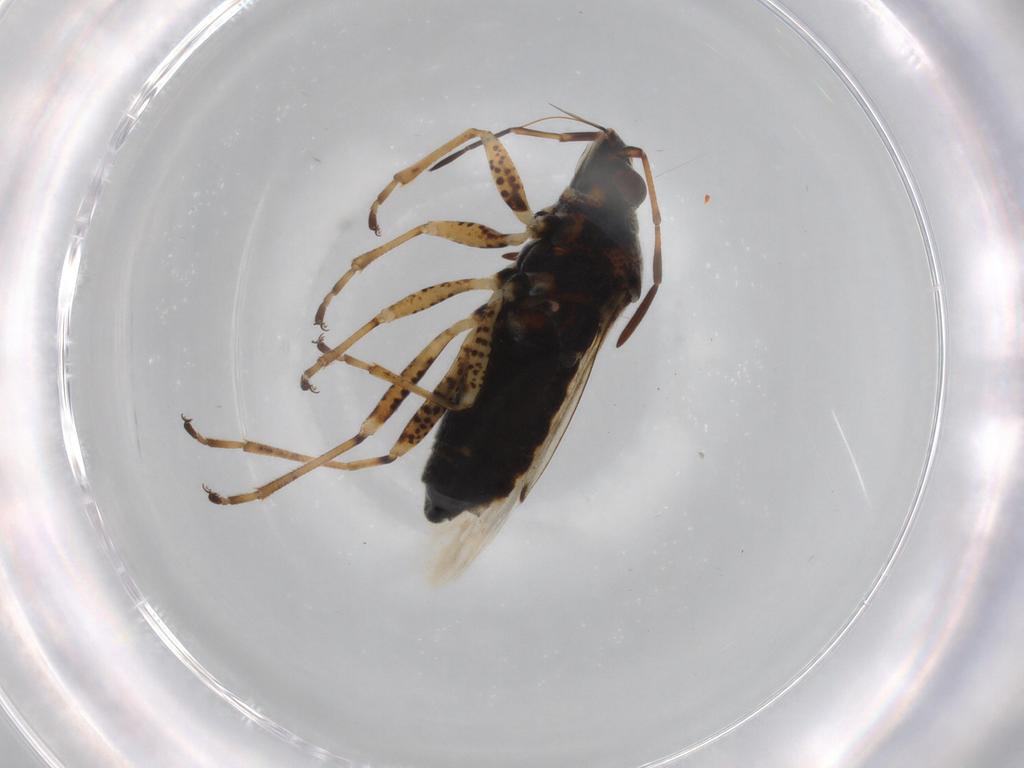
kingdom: Animalia
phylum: Arthropoda
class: Insecta
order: Hemiptera
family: Lygaeidae
